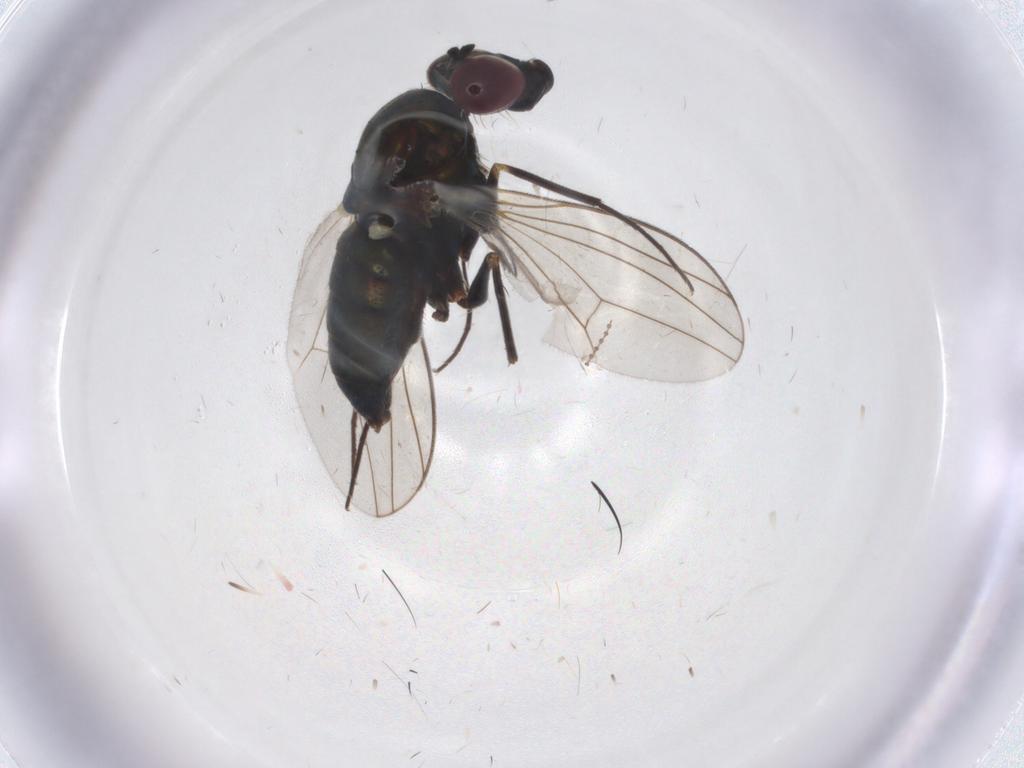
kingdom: Animalia
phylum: Arthropoda
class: Insecta
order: Diptera
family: Dolichopodidae
